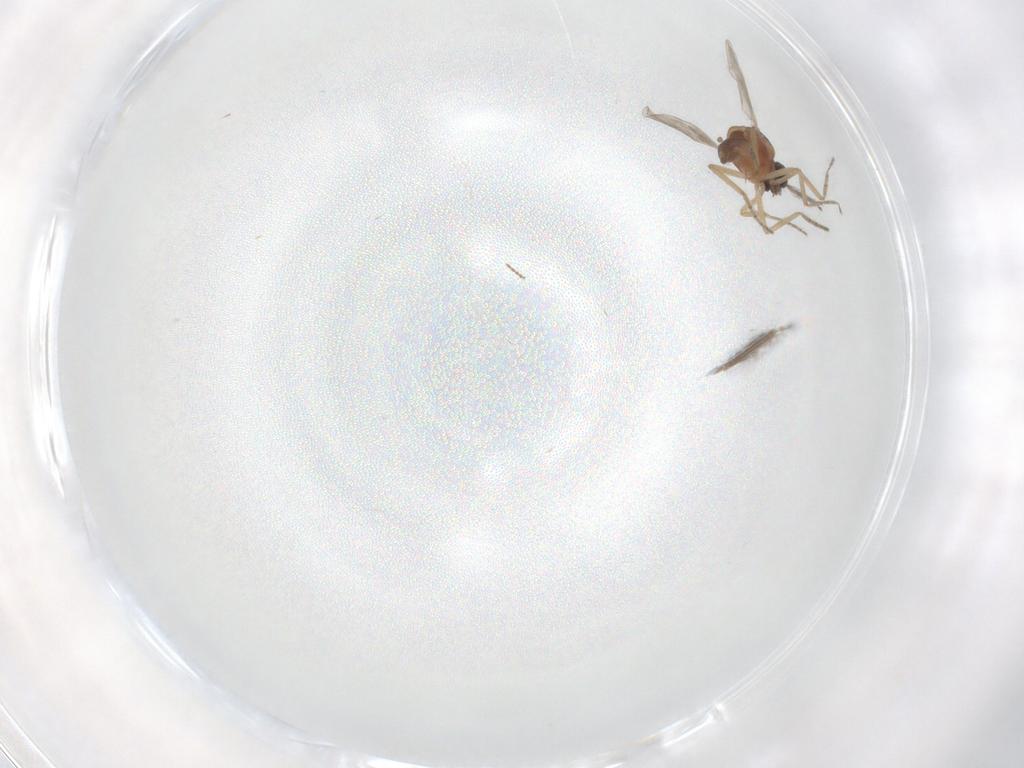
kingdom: Animalia
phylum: Arthropoda
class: Insecta
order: Diptera
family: Ceratopogonidae
